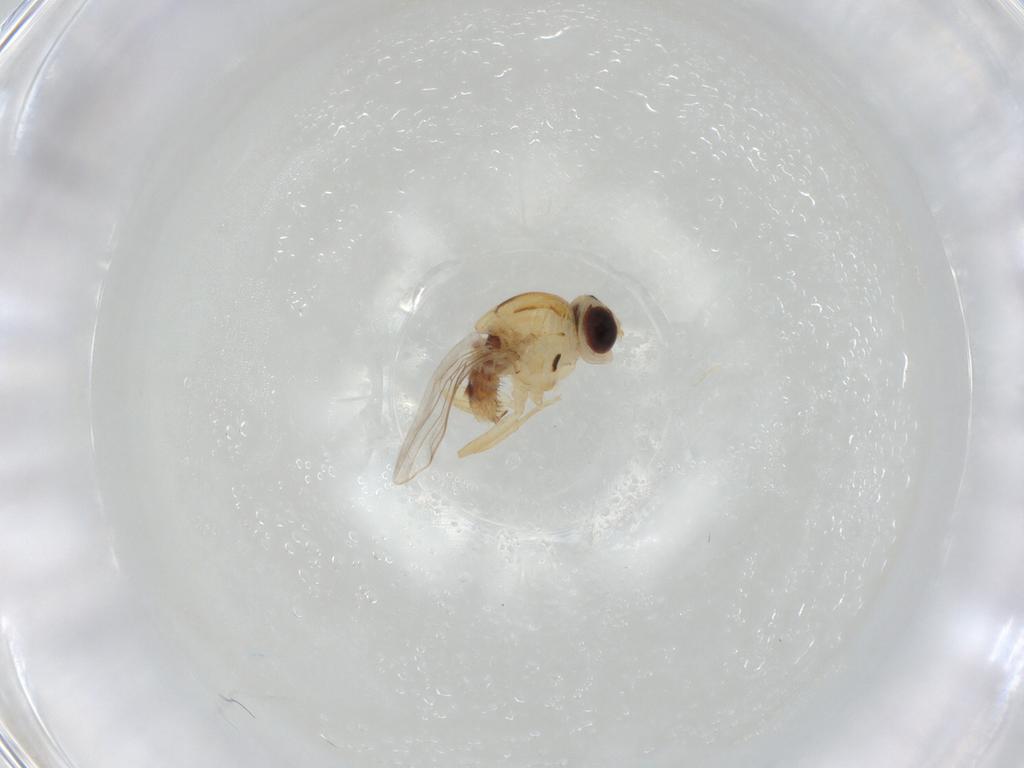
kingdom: Animalia
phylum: Arthropoda
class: Insecta
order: Diptera
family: Chloropidae
